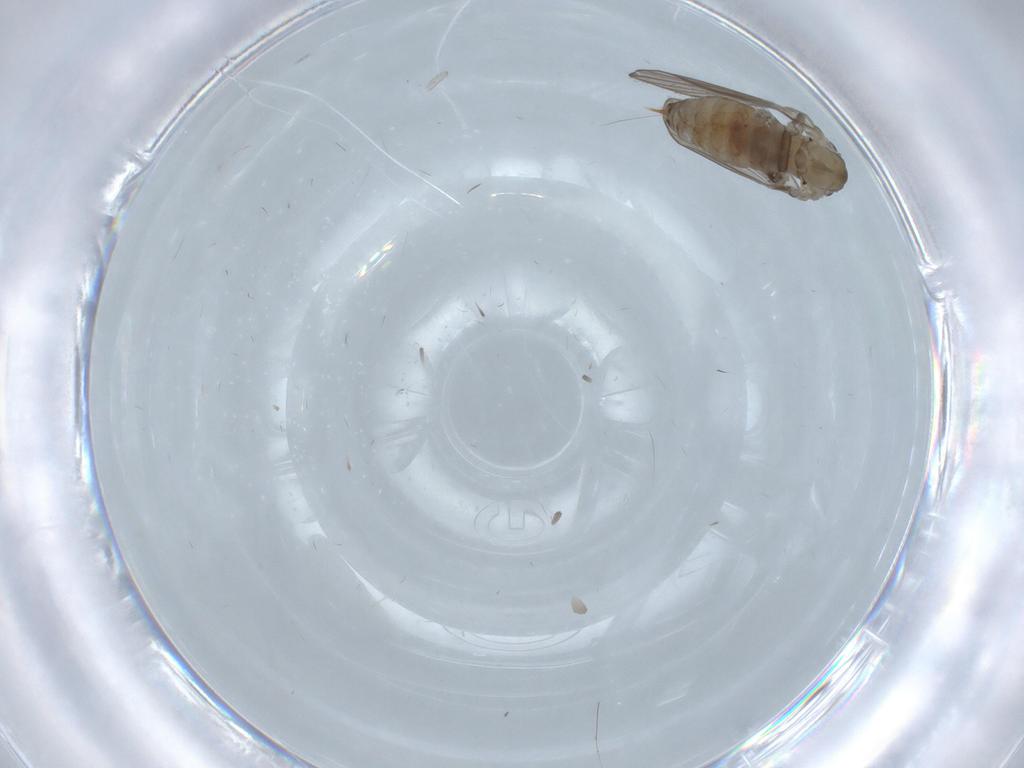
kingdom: Animalia
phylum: Arthropoda
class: Insecta
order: Diptera
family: Psychodidae
